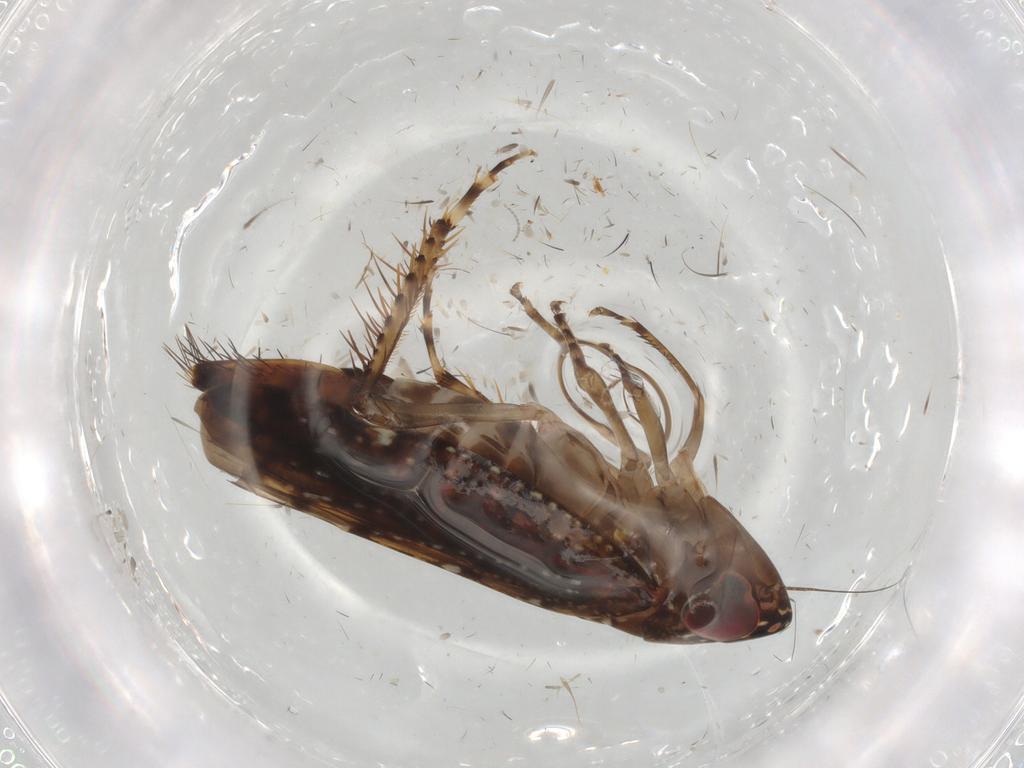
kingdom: Animalia
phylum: Arthropoda
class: Insecta
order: Hemiptera
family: Cicadellidae
